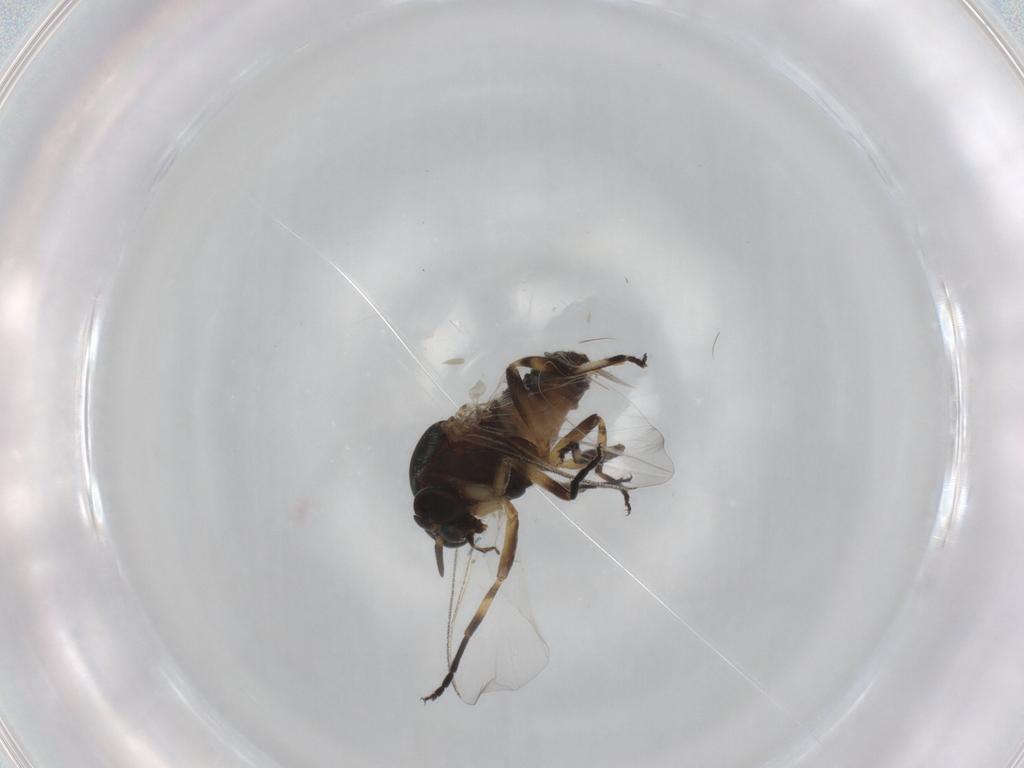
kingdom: Animalia
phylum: Arthropoda
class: Insecta
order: Diptera
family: Simuliidae
